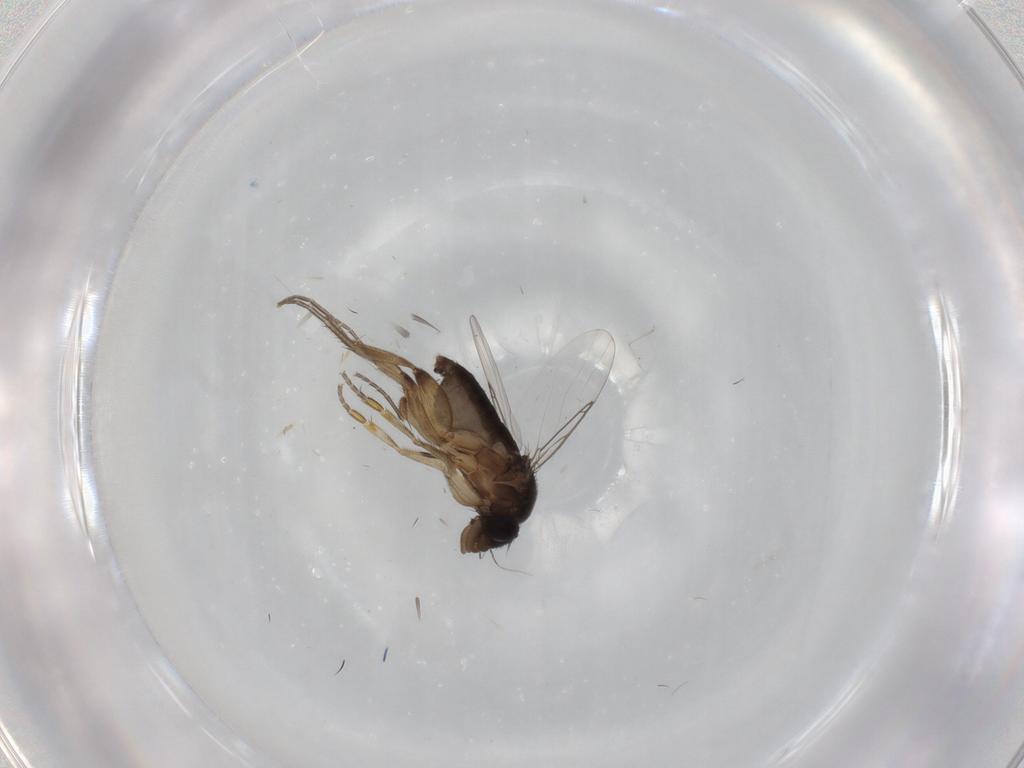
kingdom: Animalia
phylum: Arthropoda
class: Insecta
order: Diptera
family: Phoridae
